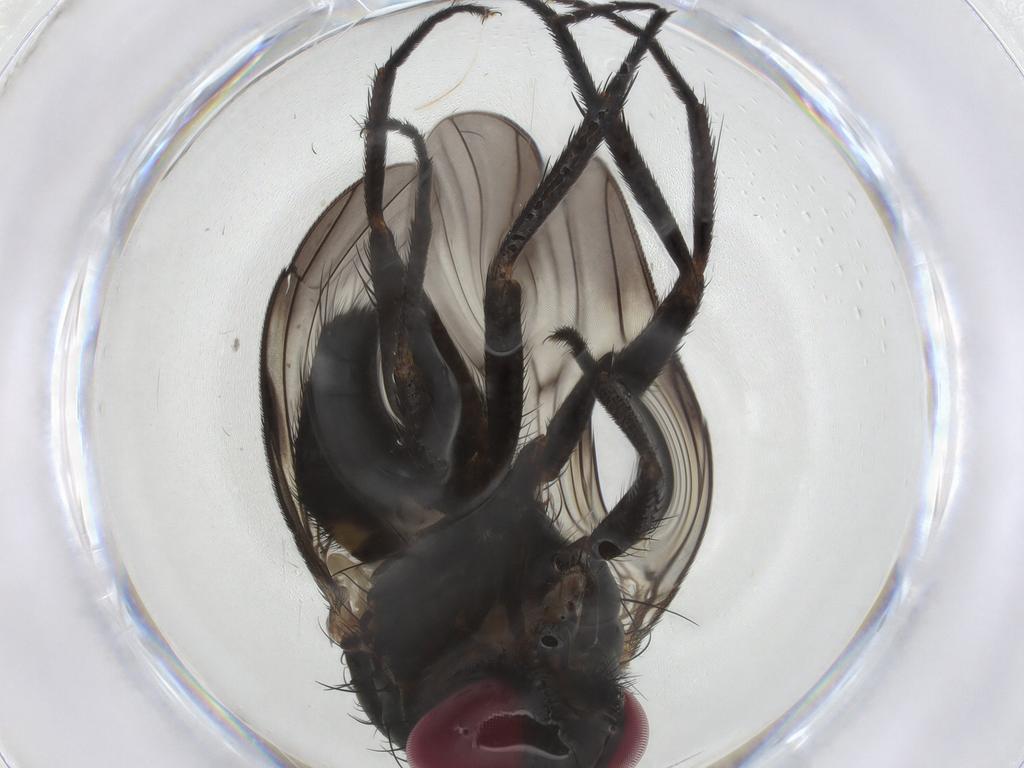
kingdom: Animalia
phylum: Arthropoda
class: Insecta
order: Diptera
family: Fanniidae
